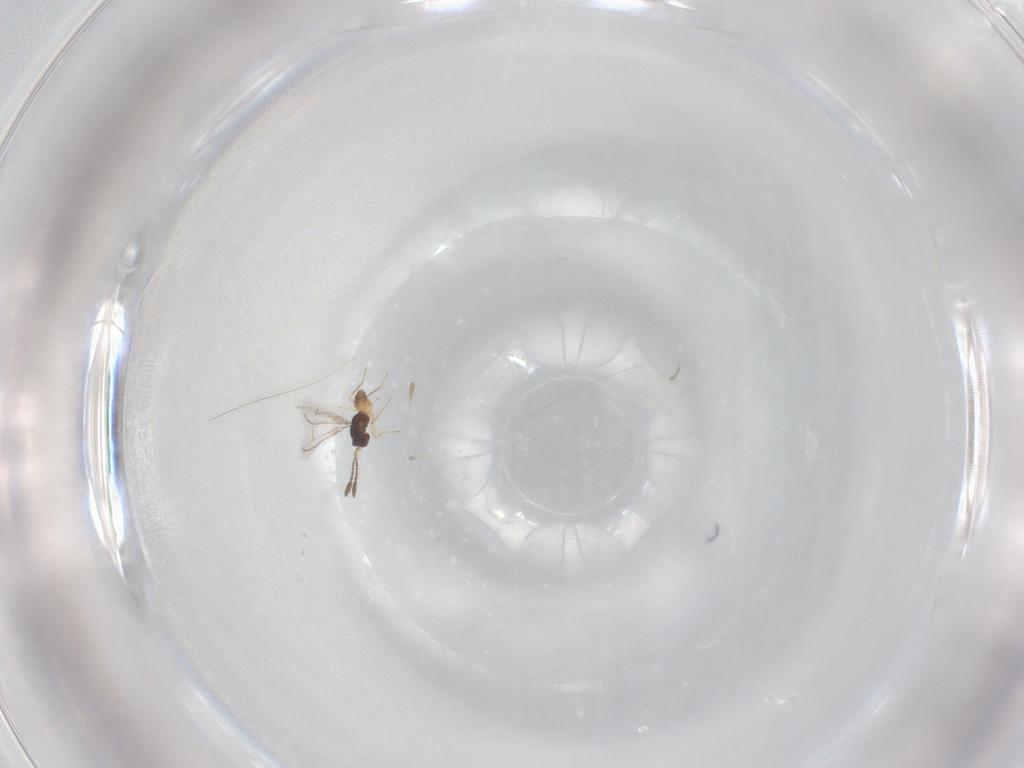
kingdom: Animalia
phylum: Arthropoda
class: Insecta
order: Hymenoptera
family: Mymaridae
